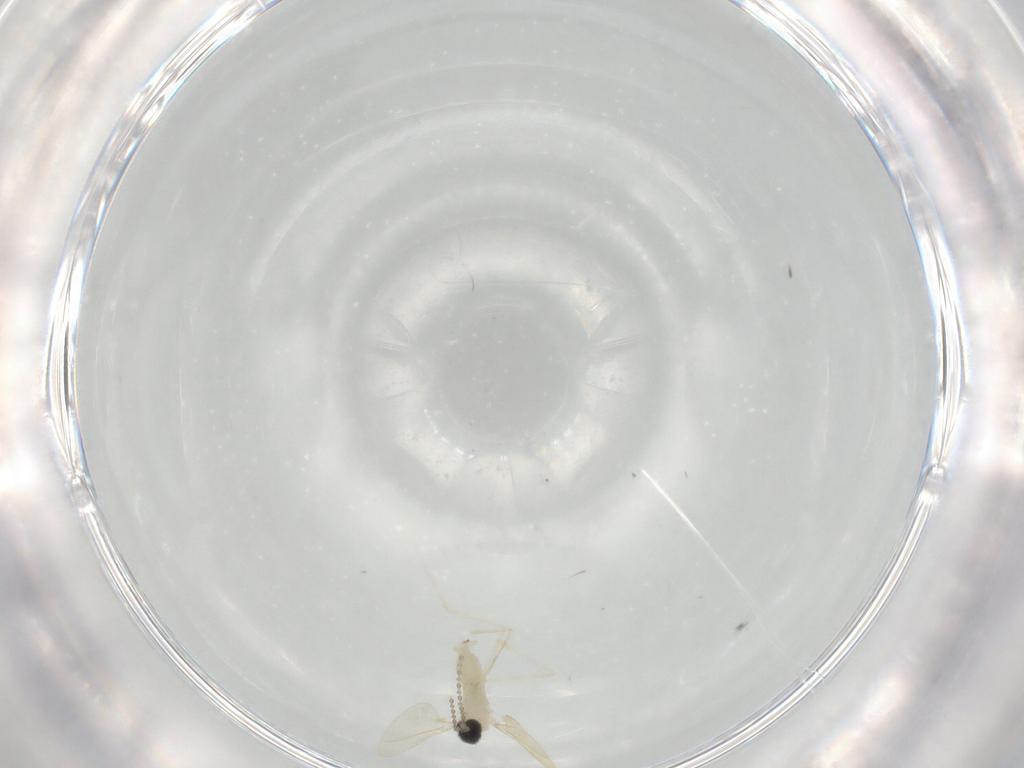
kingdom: Animalia
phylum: Arthropoda
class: Insecta
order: Diptera
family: Cecidomyiidae
